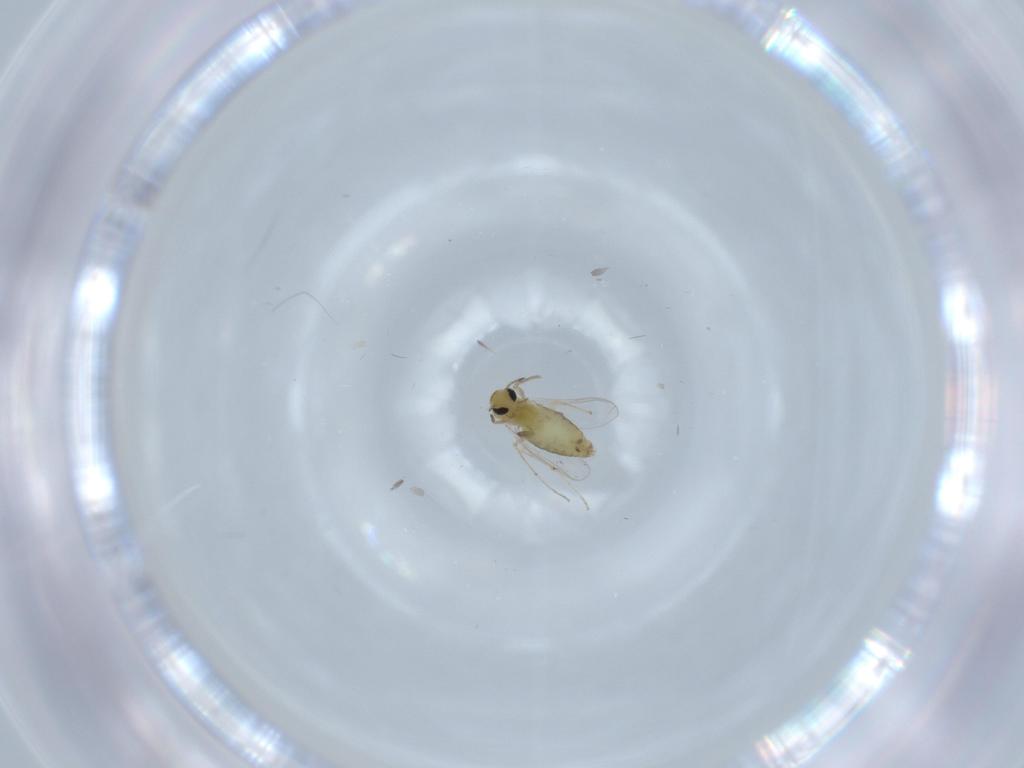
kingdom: Animalia
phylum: Arthropoda
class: Insecta
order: Diptera
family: Chironomidae
